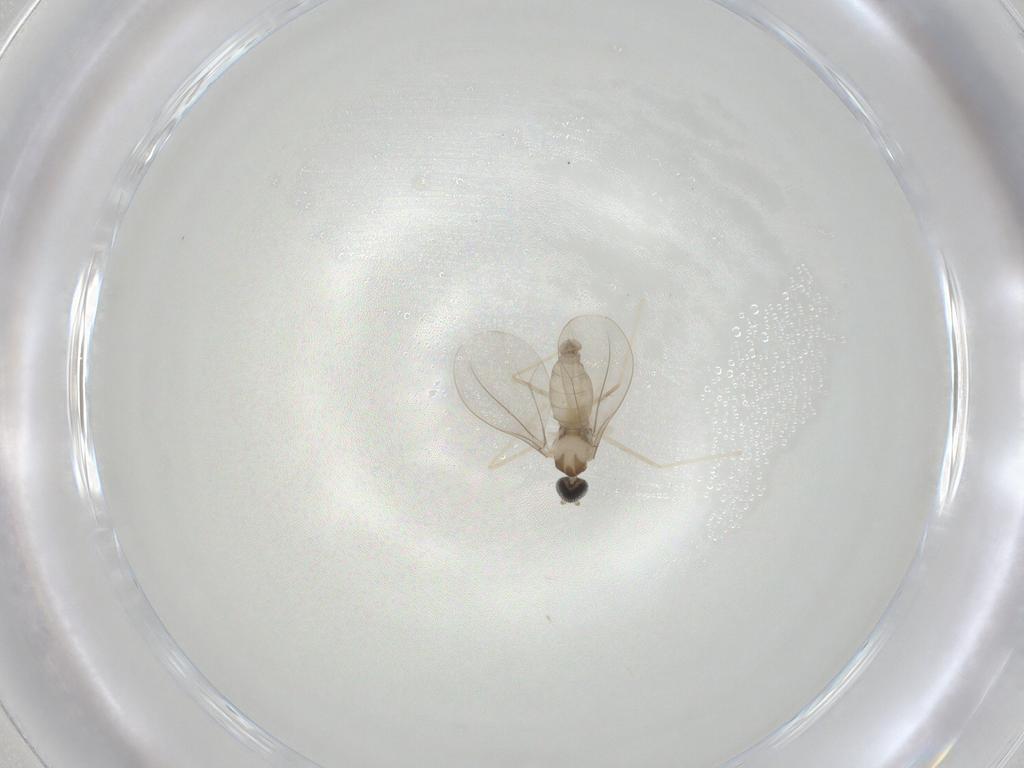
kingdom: Animalia
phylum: Arthropoda
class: Insecta
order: Diptera
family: Cecidomyiidae
